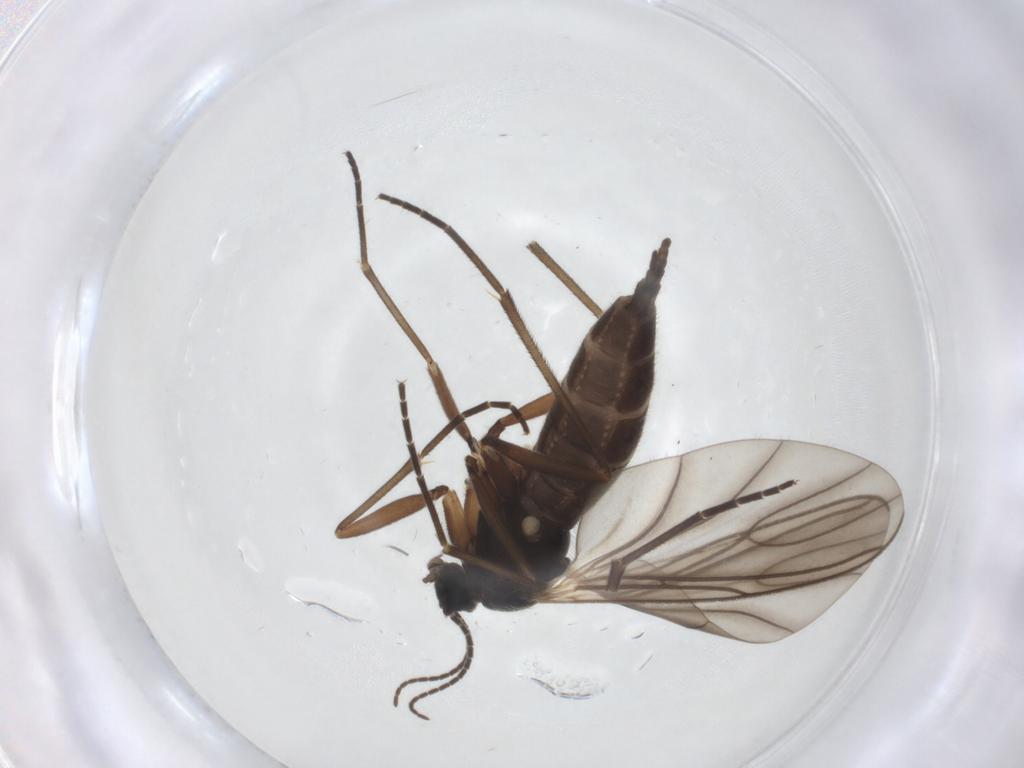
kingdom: Animalia
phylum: Arthropoda
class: Insecta
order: Diptera
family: Sciaridae
